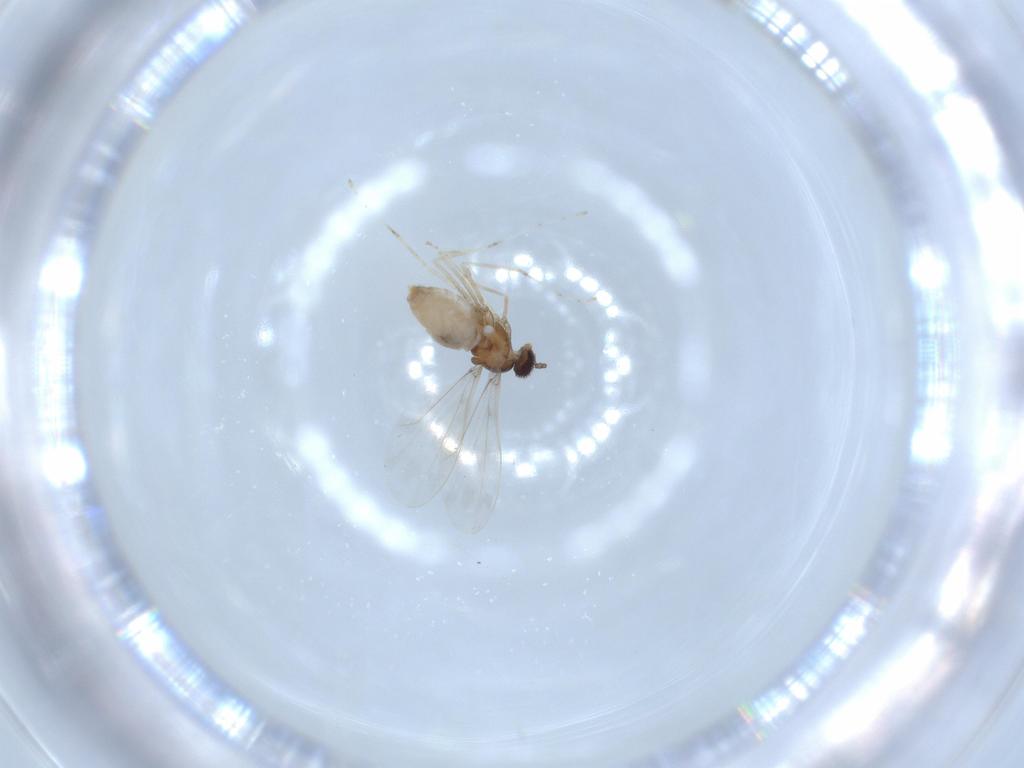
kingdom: Animalia
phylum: Arthropoda
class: Insecta
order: Diptera
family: Cecidomyiidae
